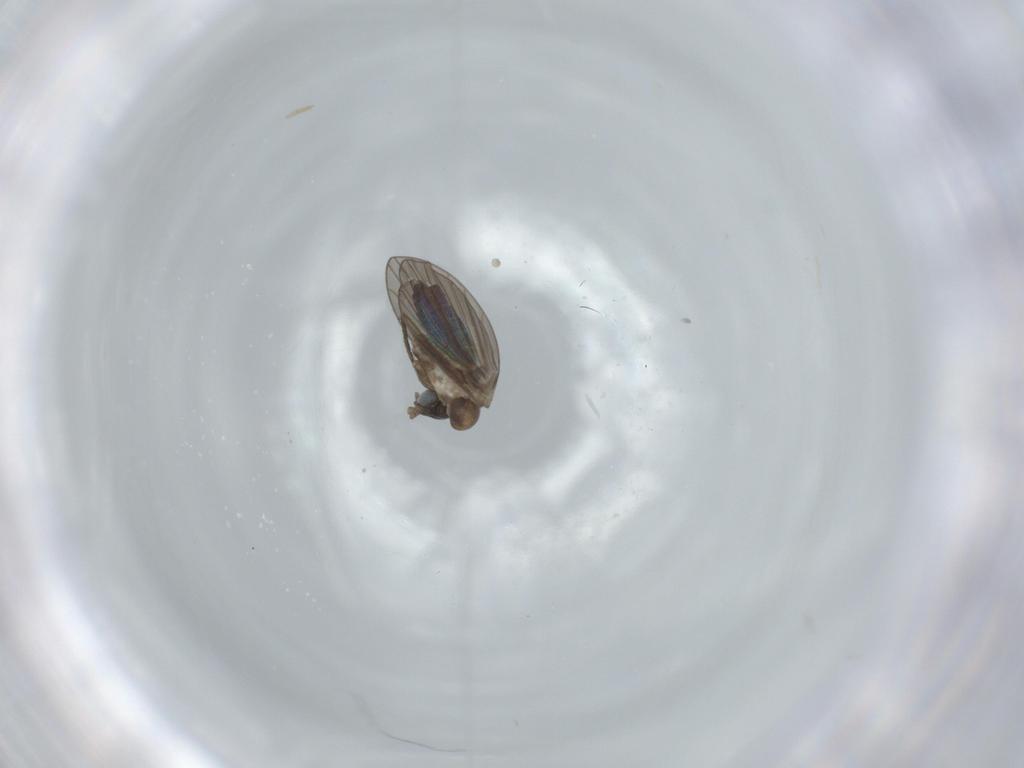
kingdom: Animalia
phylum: Arthropoda
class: Insecta
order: Diptera
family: Psychodidae
